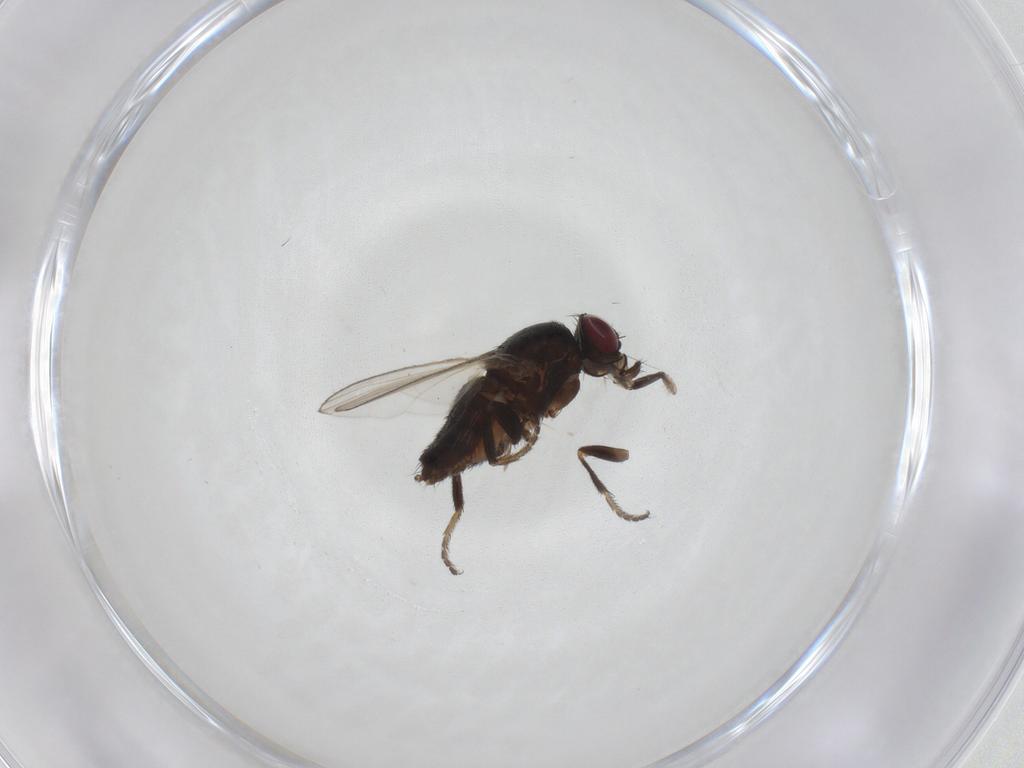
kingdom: Animalia
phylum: Arthropoda
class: Insecta
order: Diptera
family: Milichiidae
